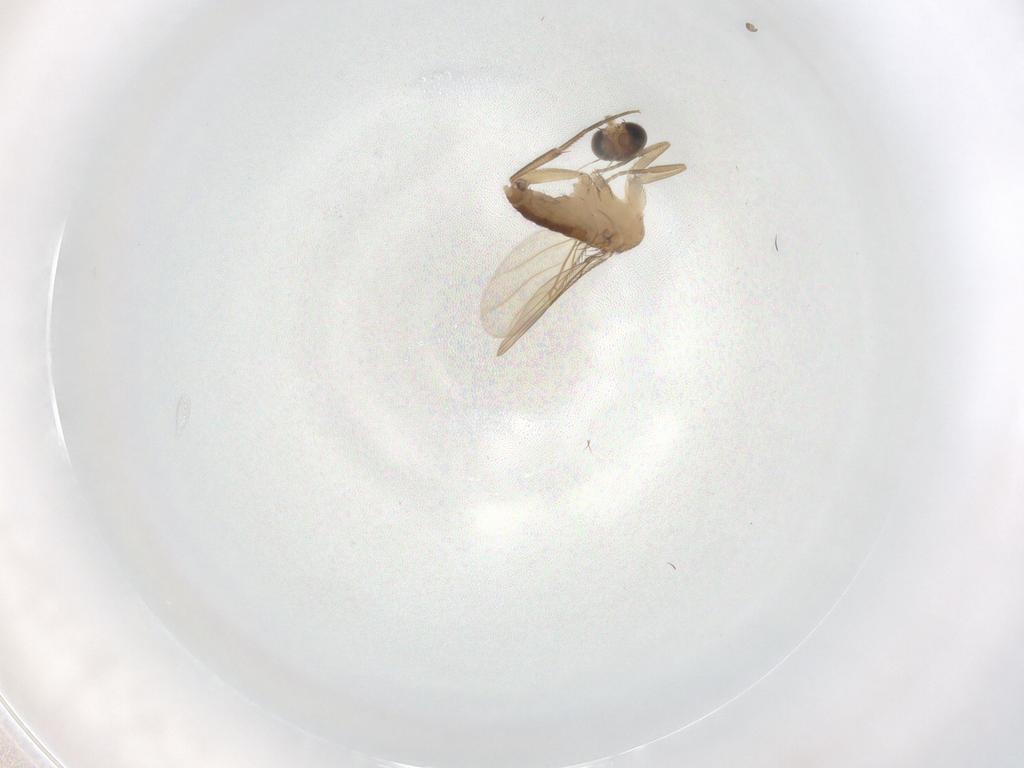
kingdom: Animalia
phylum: Arthropoda
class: Insecta
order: Diptera
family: Phoridae
